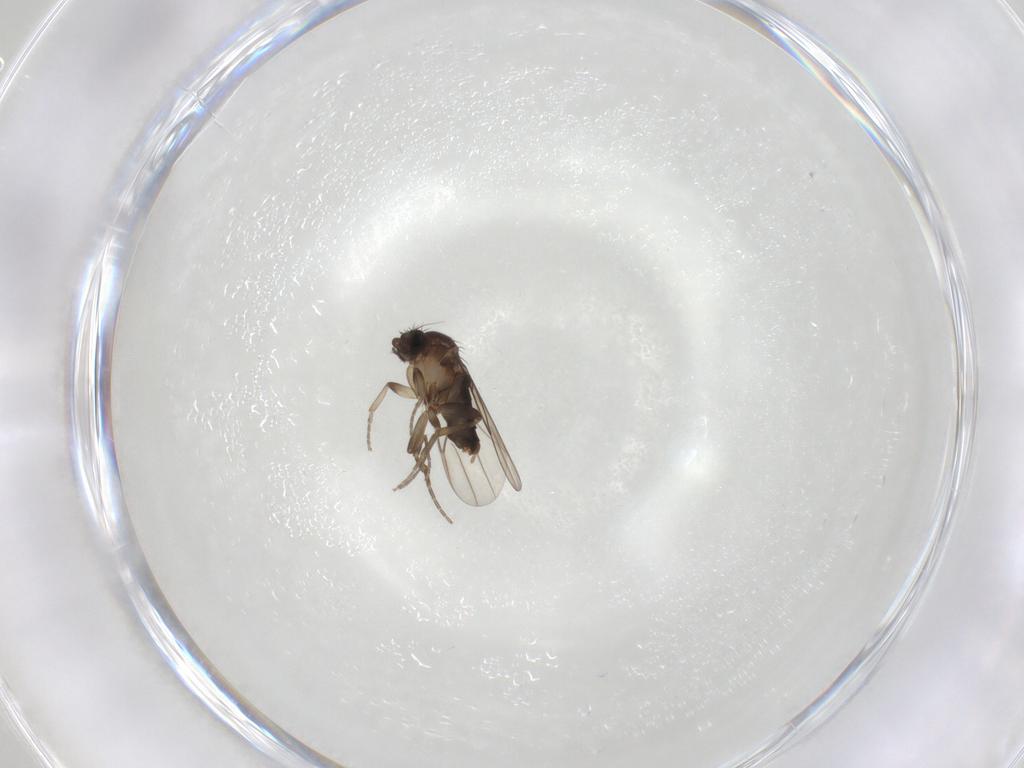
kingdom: Animalia
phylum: Arthropoda
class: Insecta
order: Diptera
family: Phoridae
